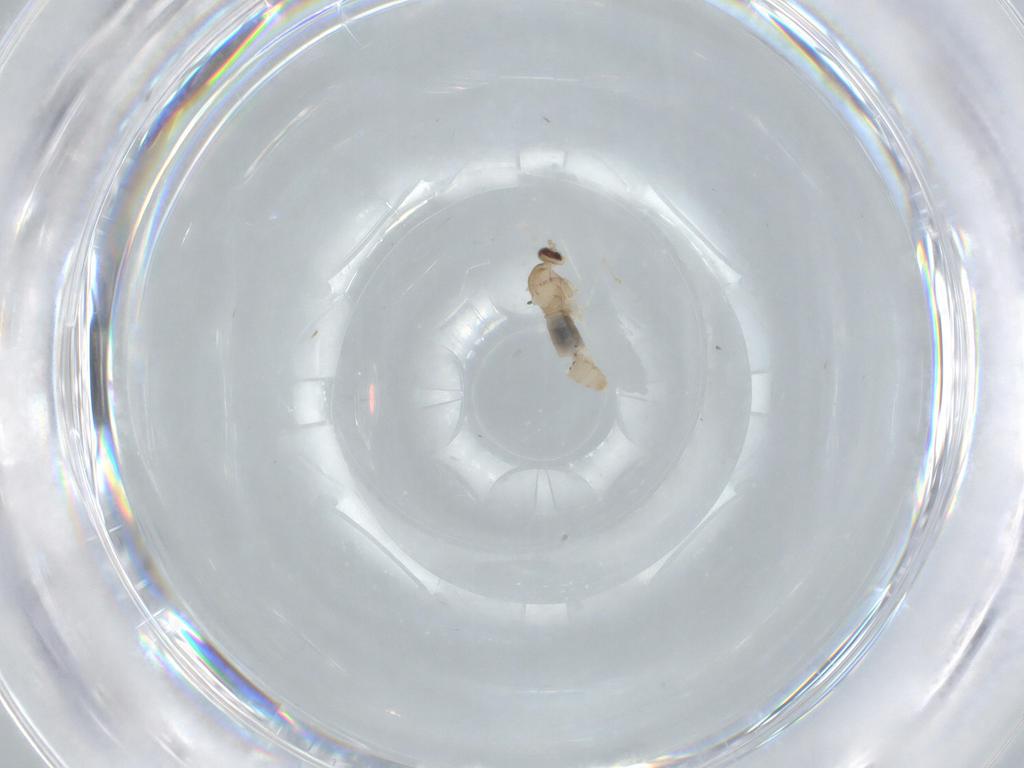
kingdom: Animalia
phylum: Arthropoda
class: Insecta
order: Diptera
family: Cecidomyiidae
